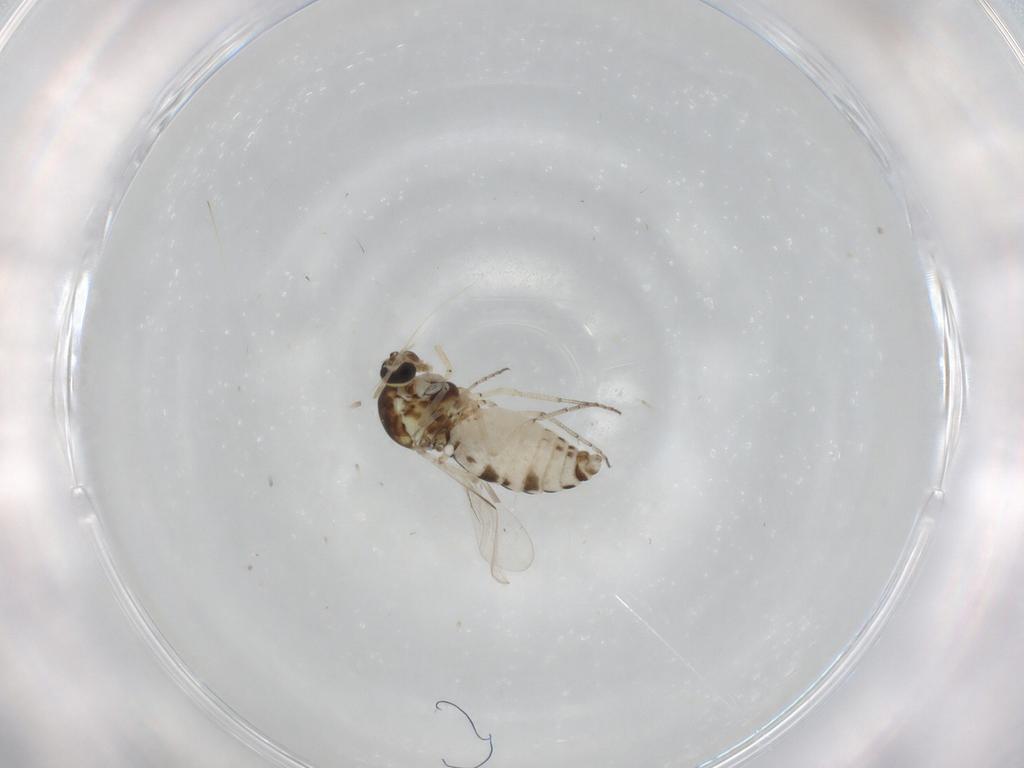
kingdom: Animalia
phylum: Arthropoda
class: Insecta
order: Diptera
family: Ceratopogonidae
